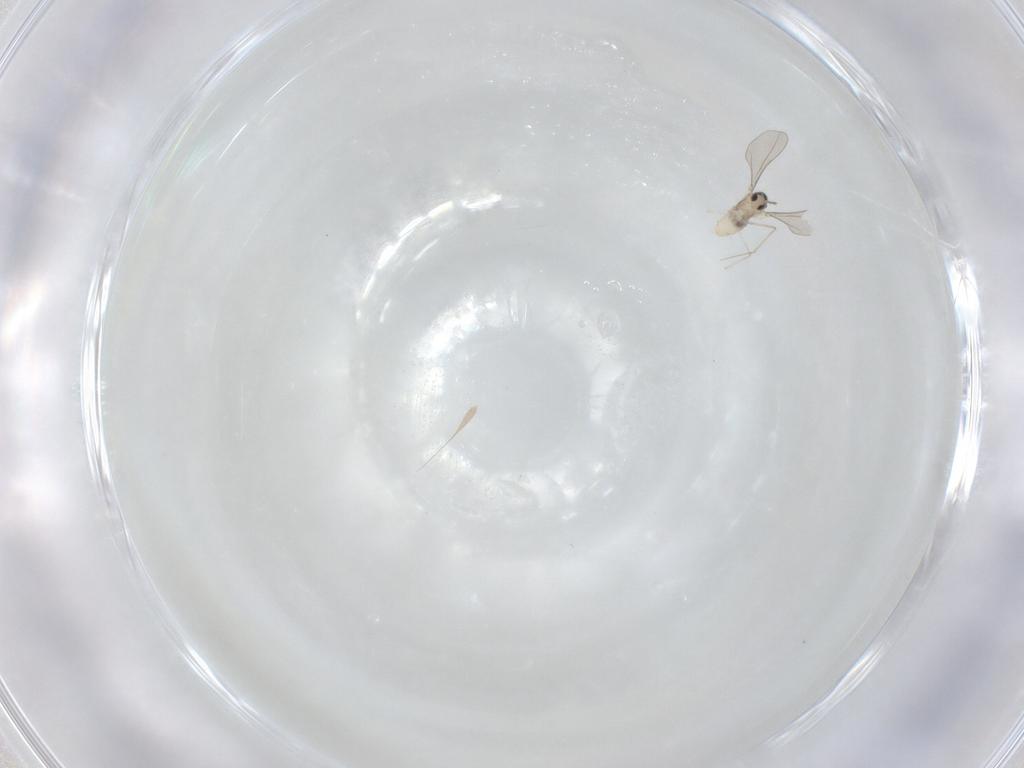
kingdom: Animalia
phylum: Arthropoda
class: Insecta
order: Diptera
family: Cecidomyiidae
